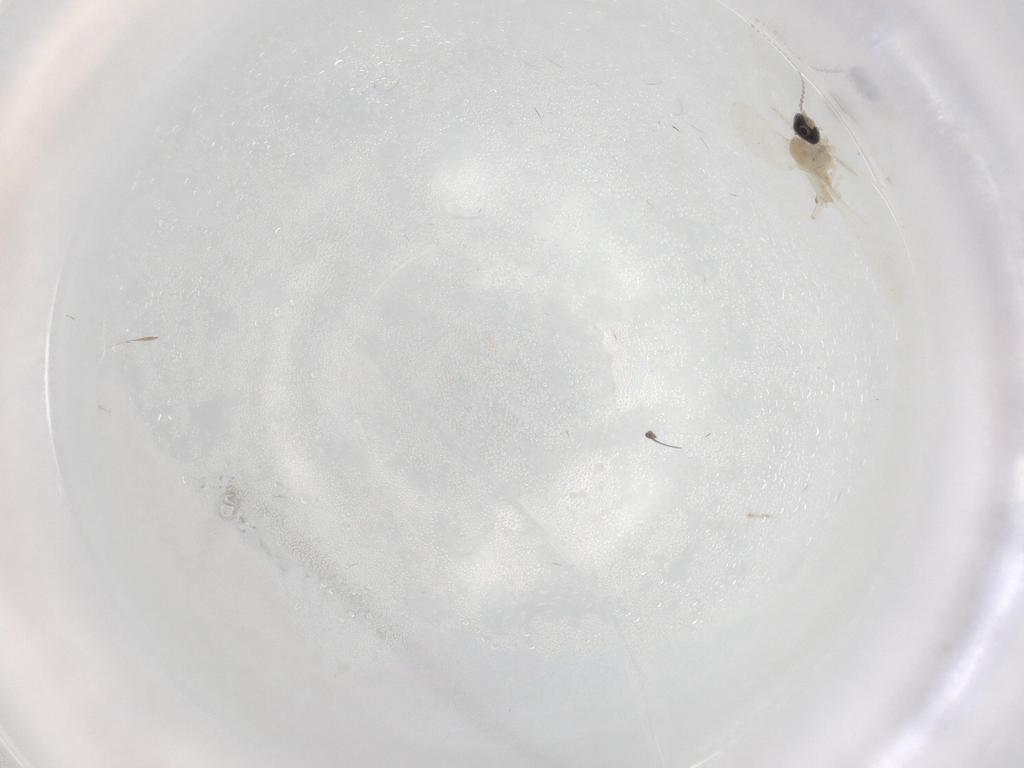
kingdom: Animalia
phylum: Arthropoda
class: Insecta
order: Diptera
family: Cecidomyiidae
